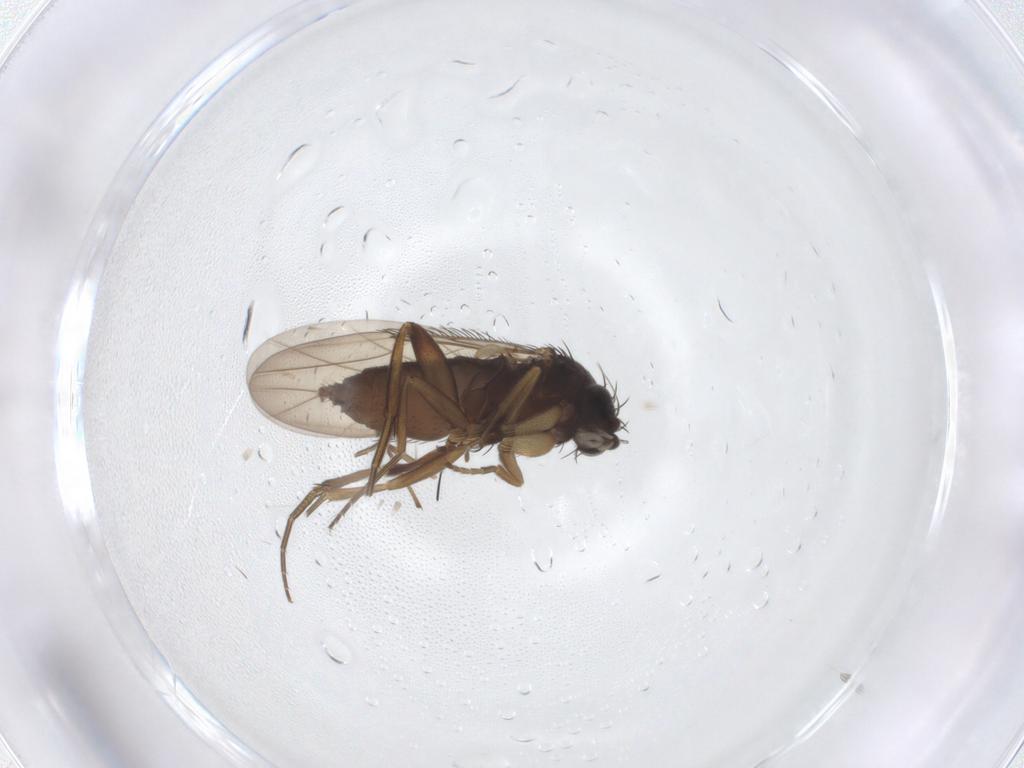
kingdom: Animalia
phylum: Arthropoda
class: Insecta
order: Diptera
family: Phoridae
